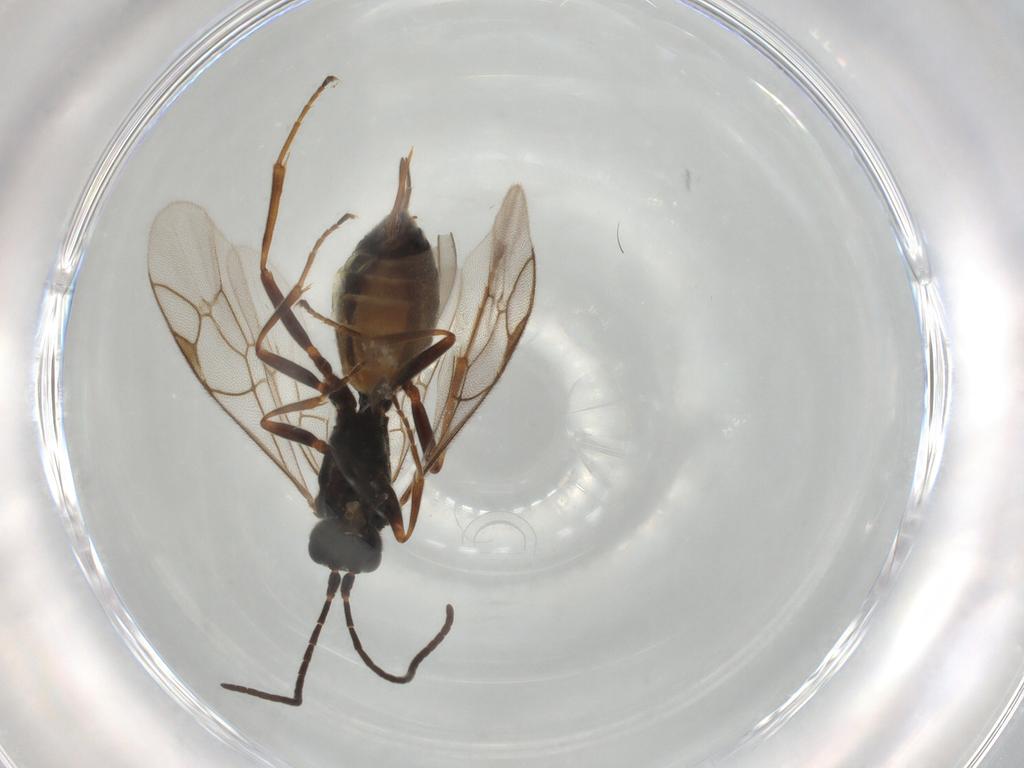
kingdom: Animalia
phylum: Arthropoda
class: Insecta
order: Hymenoptera
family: Ichneumonidae
